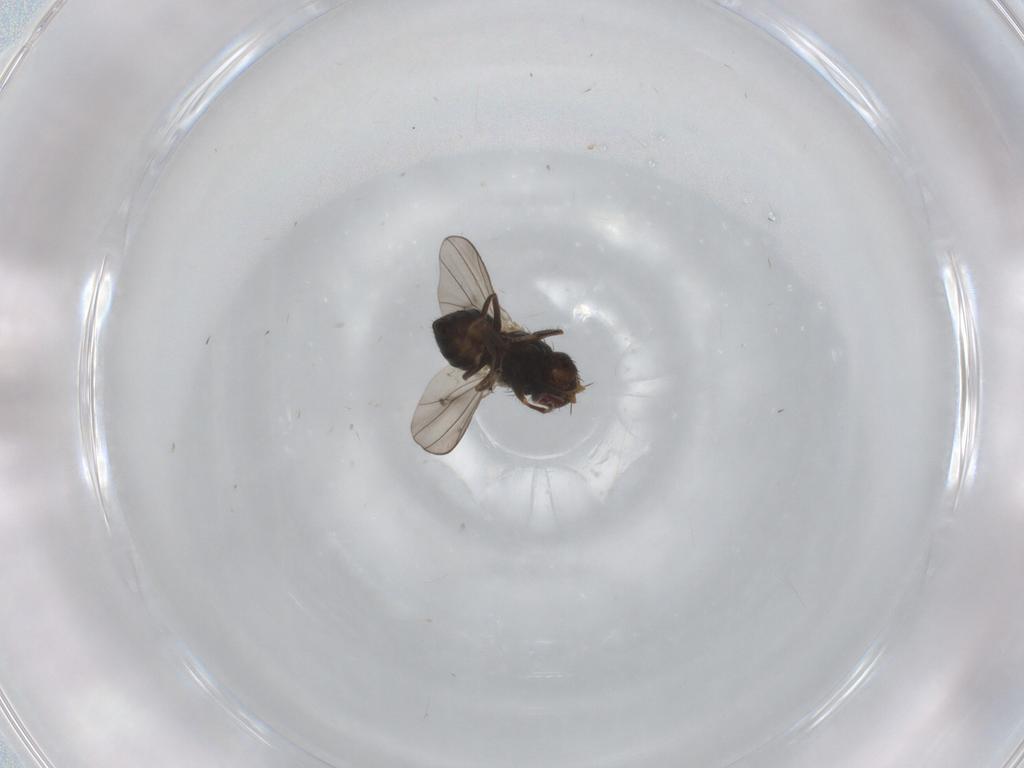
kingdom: Animalia
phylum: Arthropoda
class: Insecta
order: Diptera
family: Ephydridae
